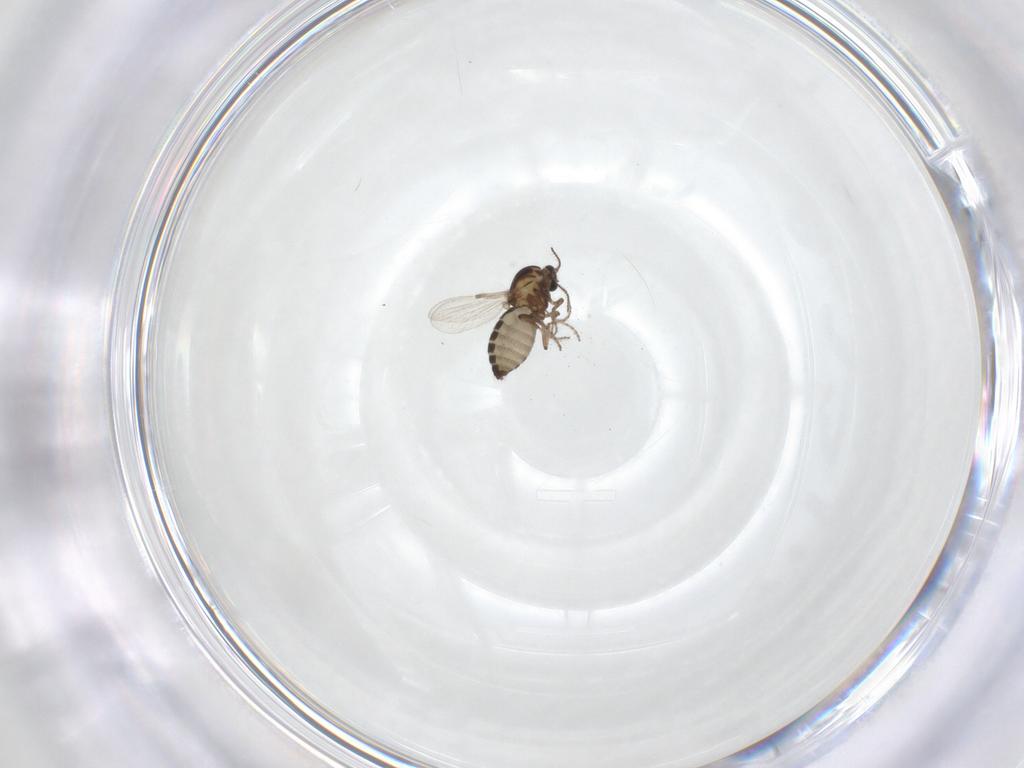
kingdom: Animalia
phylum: Arthropoda
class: Insecta
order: Diptera
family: Ceratopogonidae
